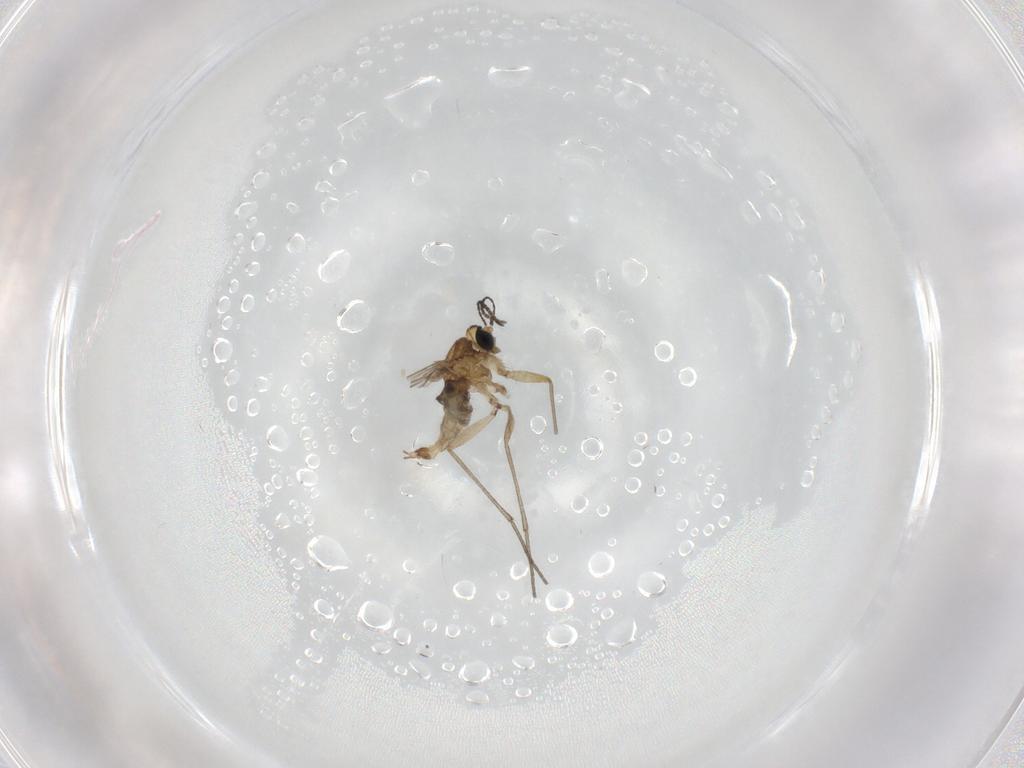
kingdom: Animalia
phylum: Arthropoda
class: Insecta
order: Diptera
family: Sciaridae
